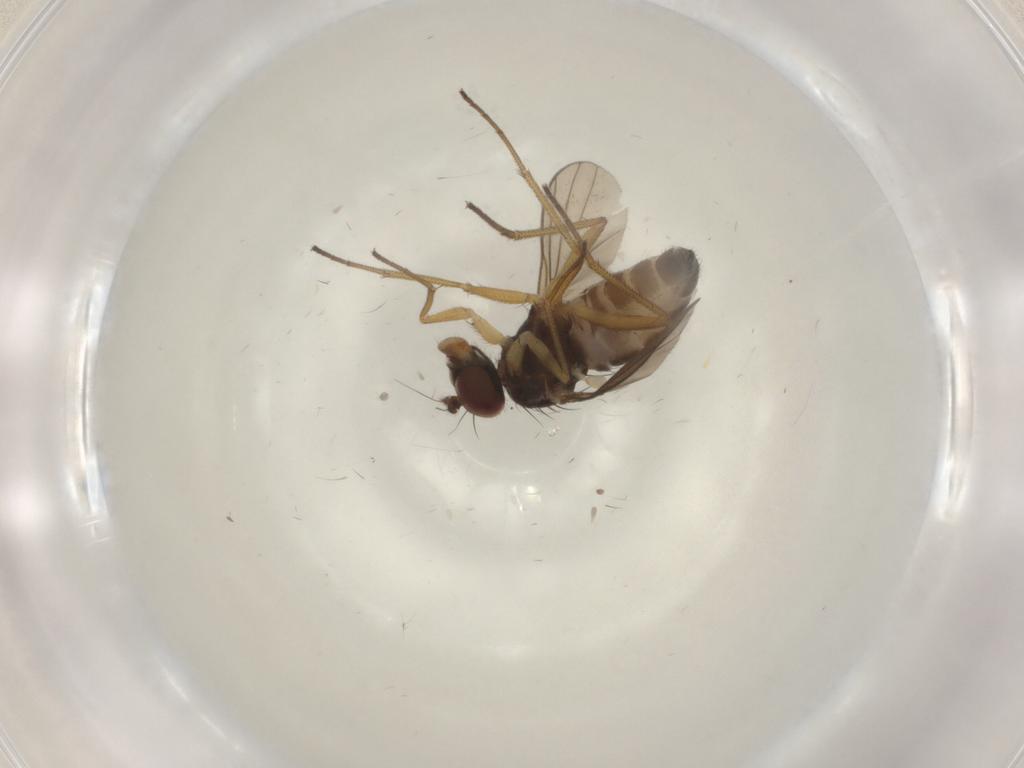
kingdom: Animalia
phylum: Arthropoda
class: Insecta
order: Diptera
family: Dolichopodidae
